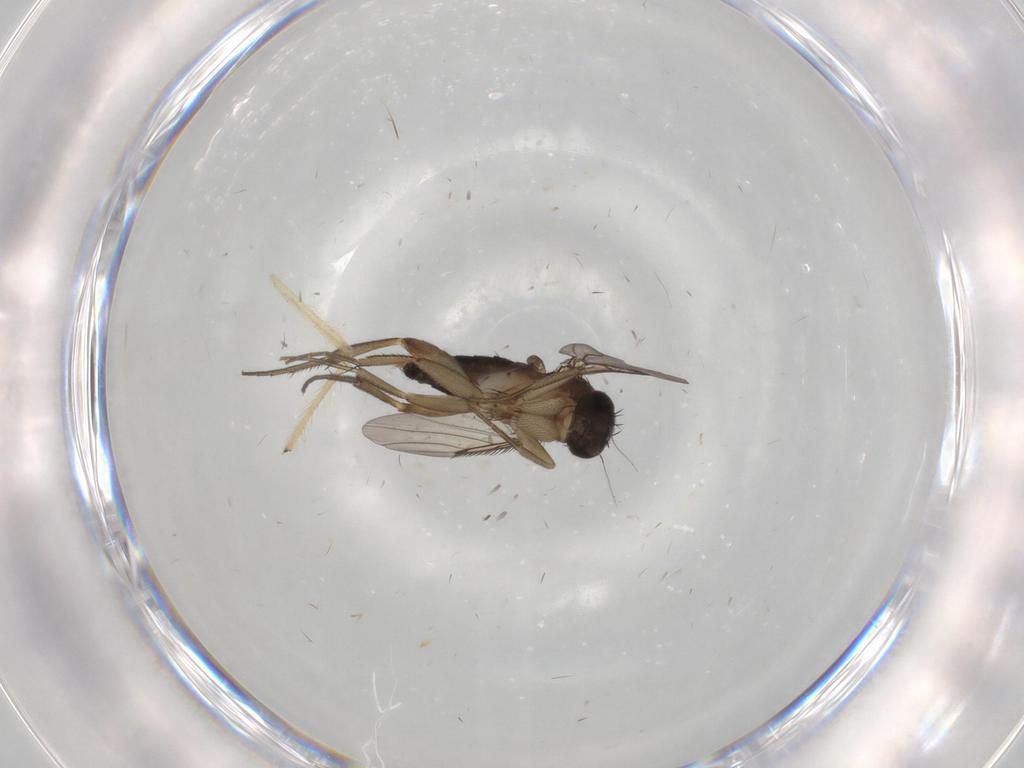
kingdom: Animalia
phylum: Arthropoda
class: Insecta
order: Diptera
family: Phoridae
